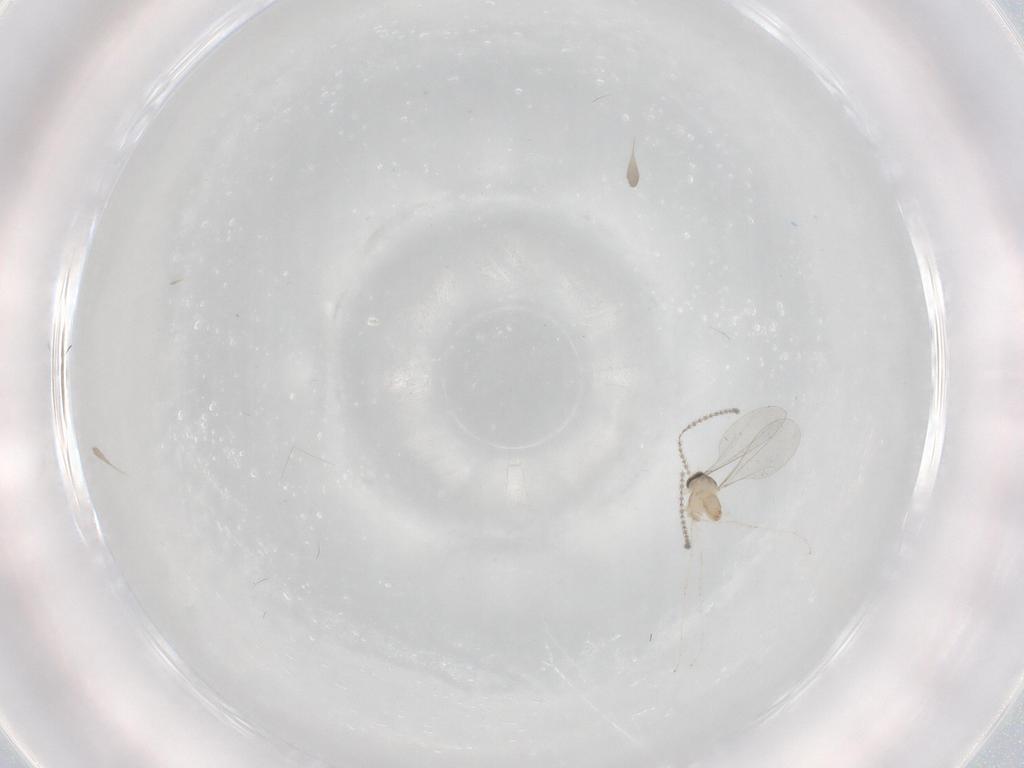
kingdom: Animalia
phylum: Arthropoda
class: Insecta
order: Diptera
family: Cecidomyiidae
